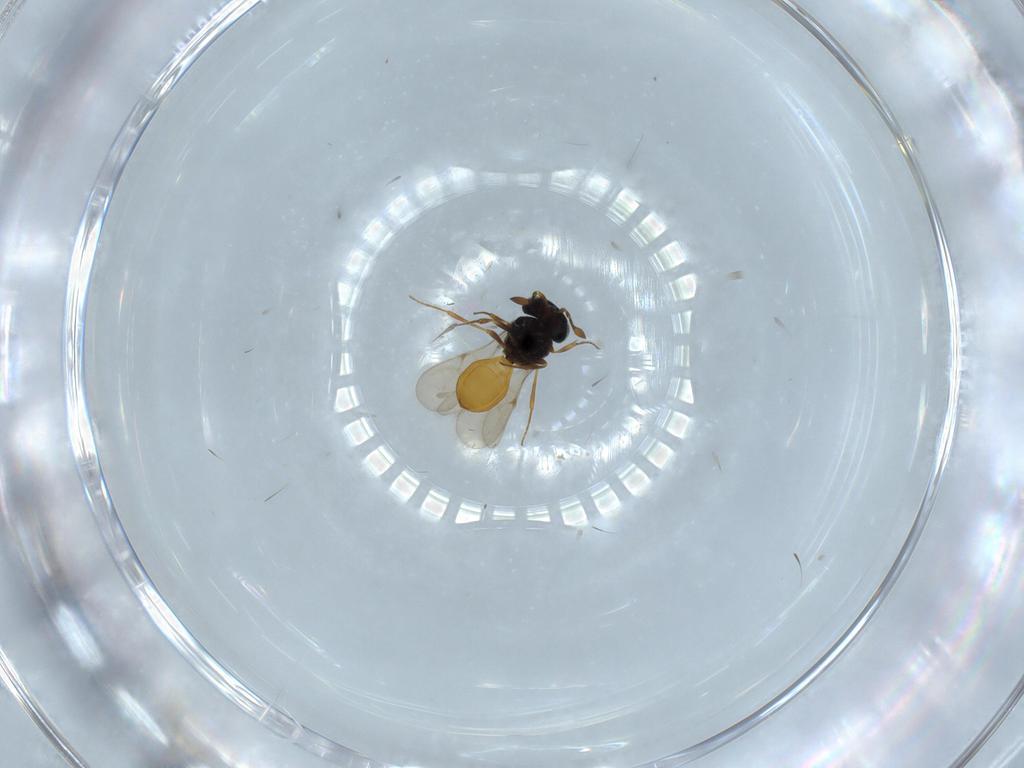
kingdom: Animalia
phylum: Arthropoda
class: Insecta
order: Hymenoptera
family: Scelionidae
